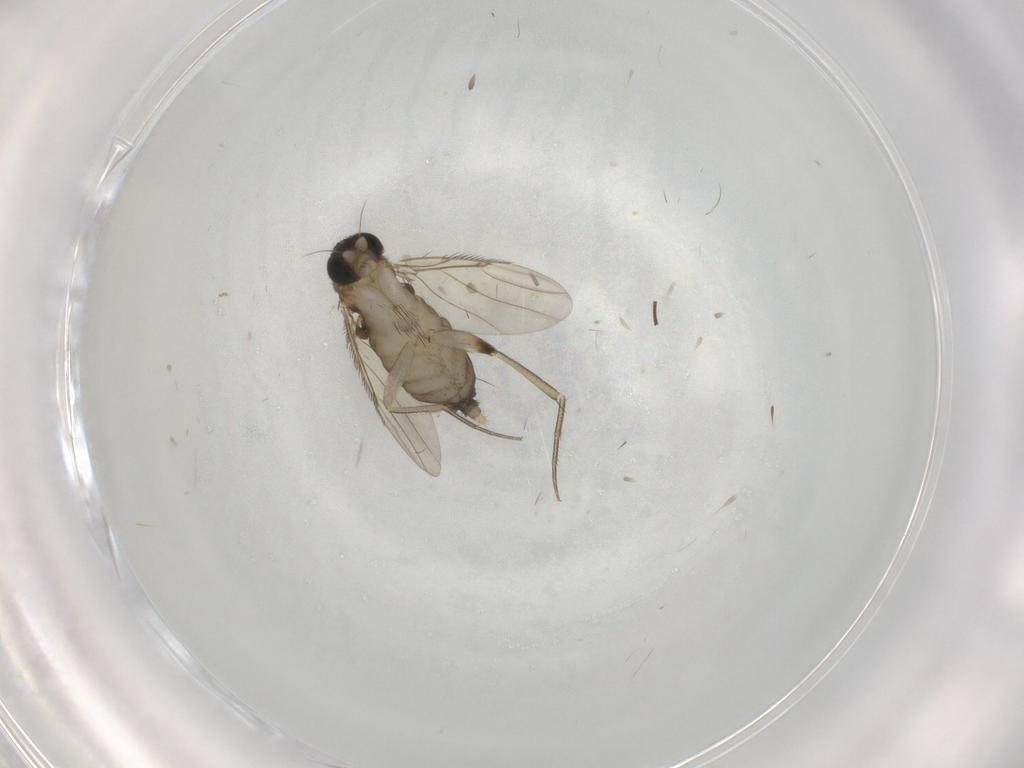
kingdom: Animalia
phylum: Arthropoda
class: Insecta
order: Diptera
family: Phoridae
